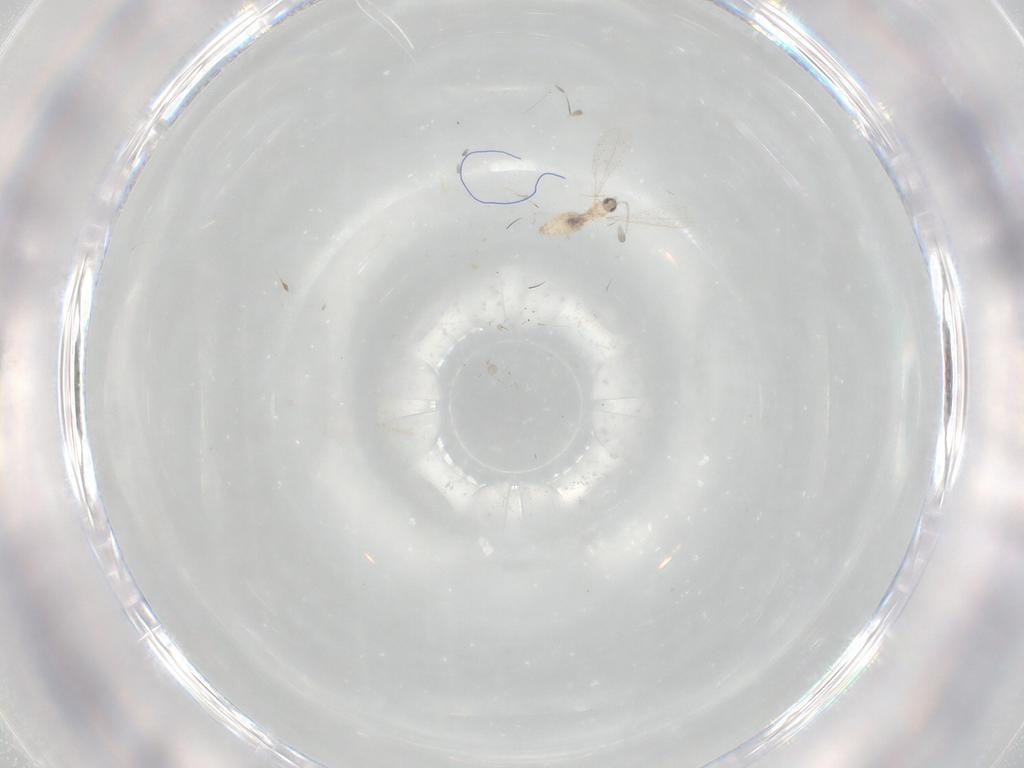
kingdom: Animalia
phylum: Arthropoda
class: Insecta
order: Diptera
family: Cecidomyiidae
